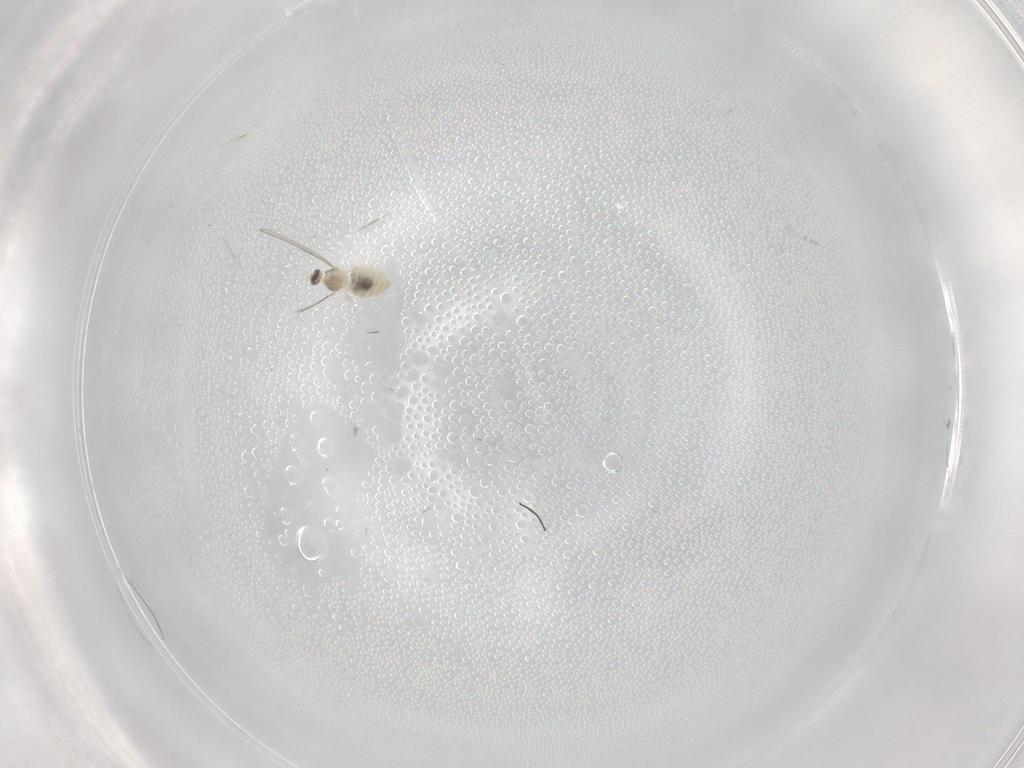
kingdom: Animalia
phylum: Arthropoda
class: Insecta
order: Diptera
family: Cecidomyiidae
